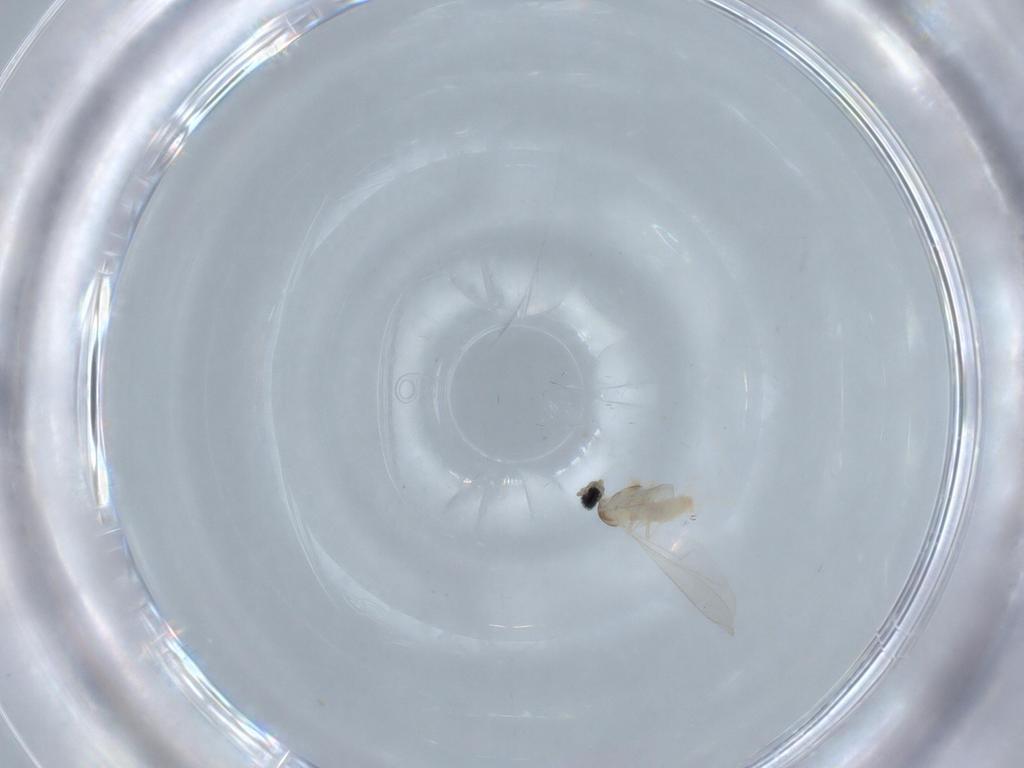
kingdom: Animalia
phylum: Arthropoda
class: Insecta
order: Diptera
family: Cecidomyiidae
